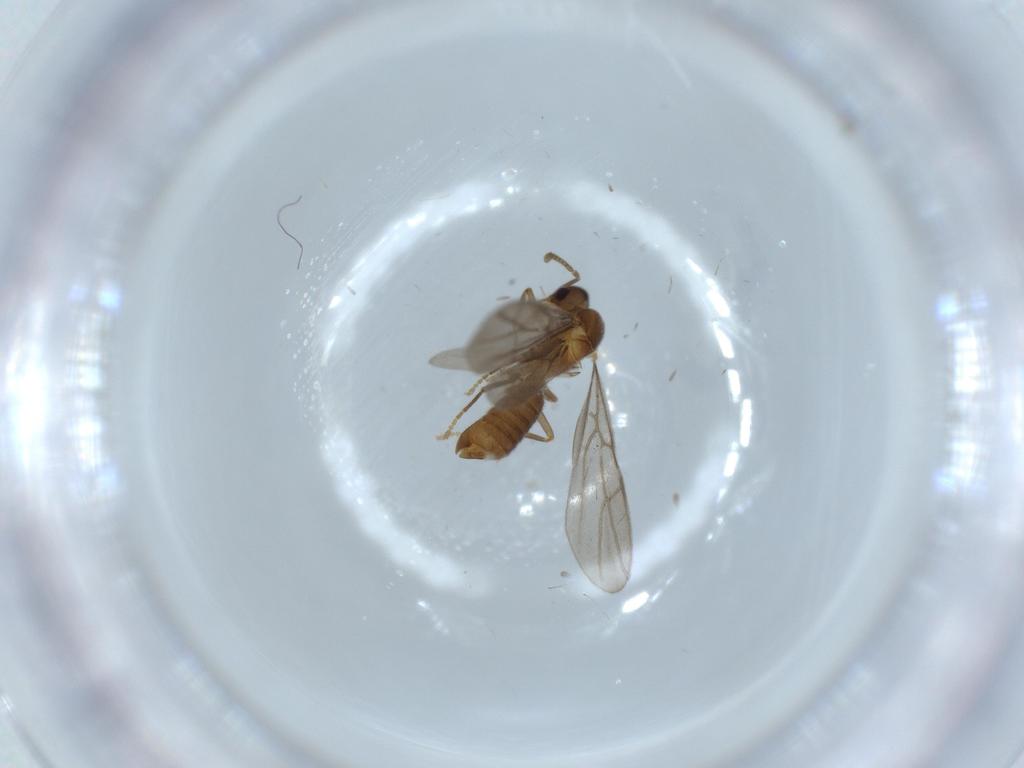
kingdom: Animalia
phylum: Arthropoda
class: Insecta
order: Hymenoptera
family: Formicidae
